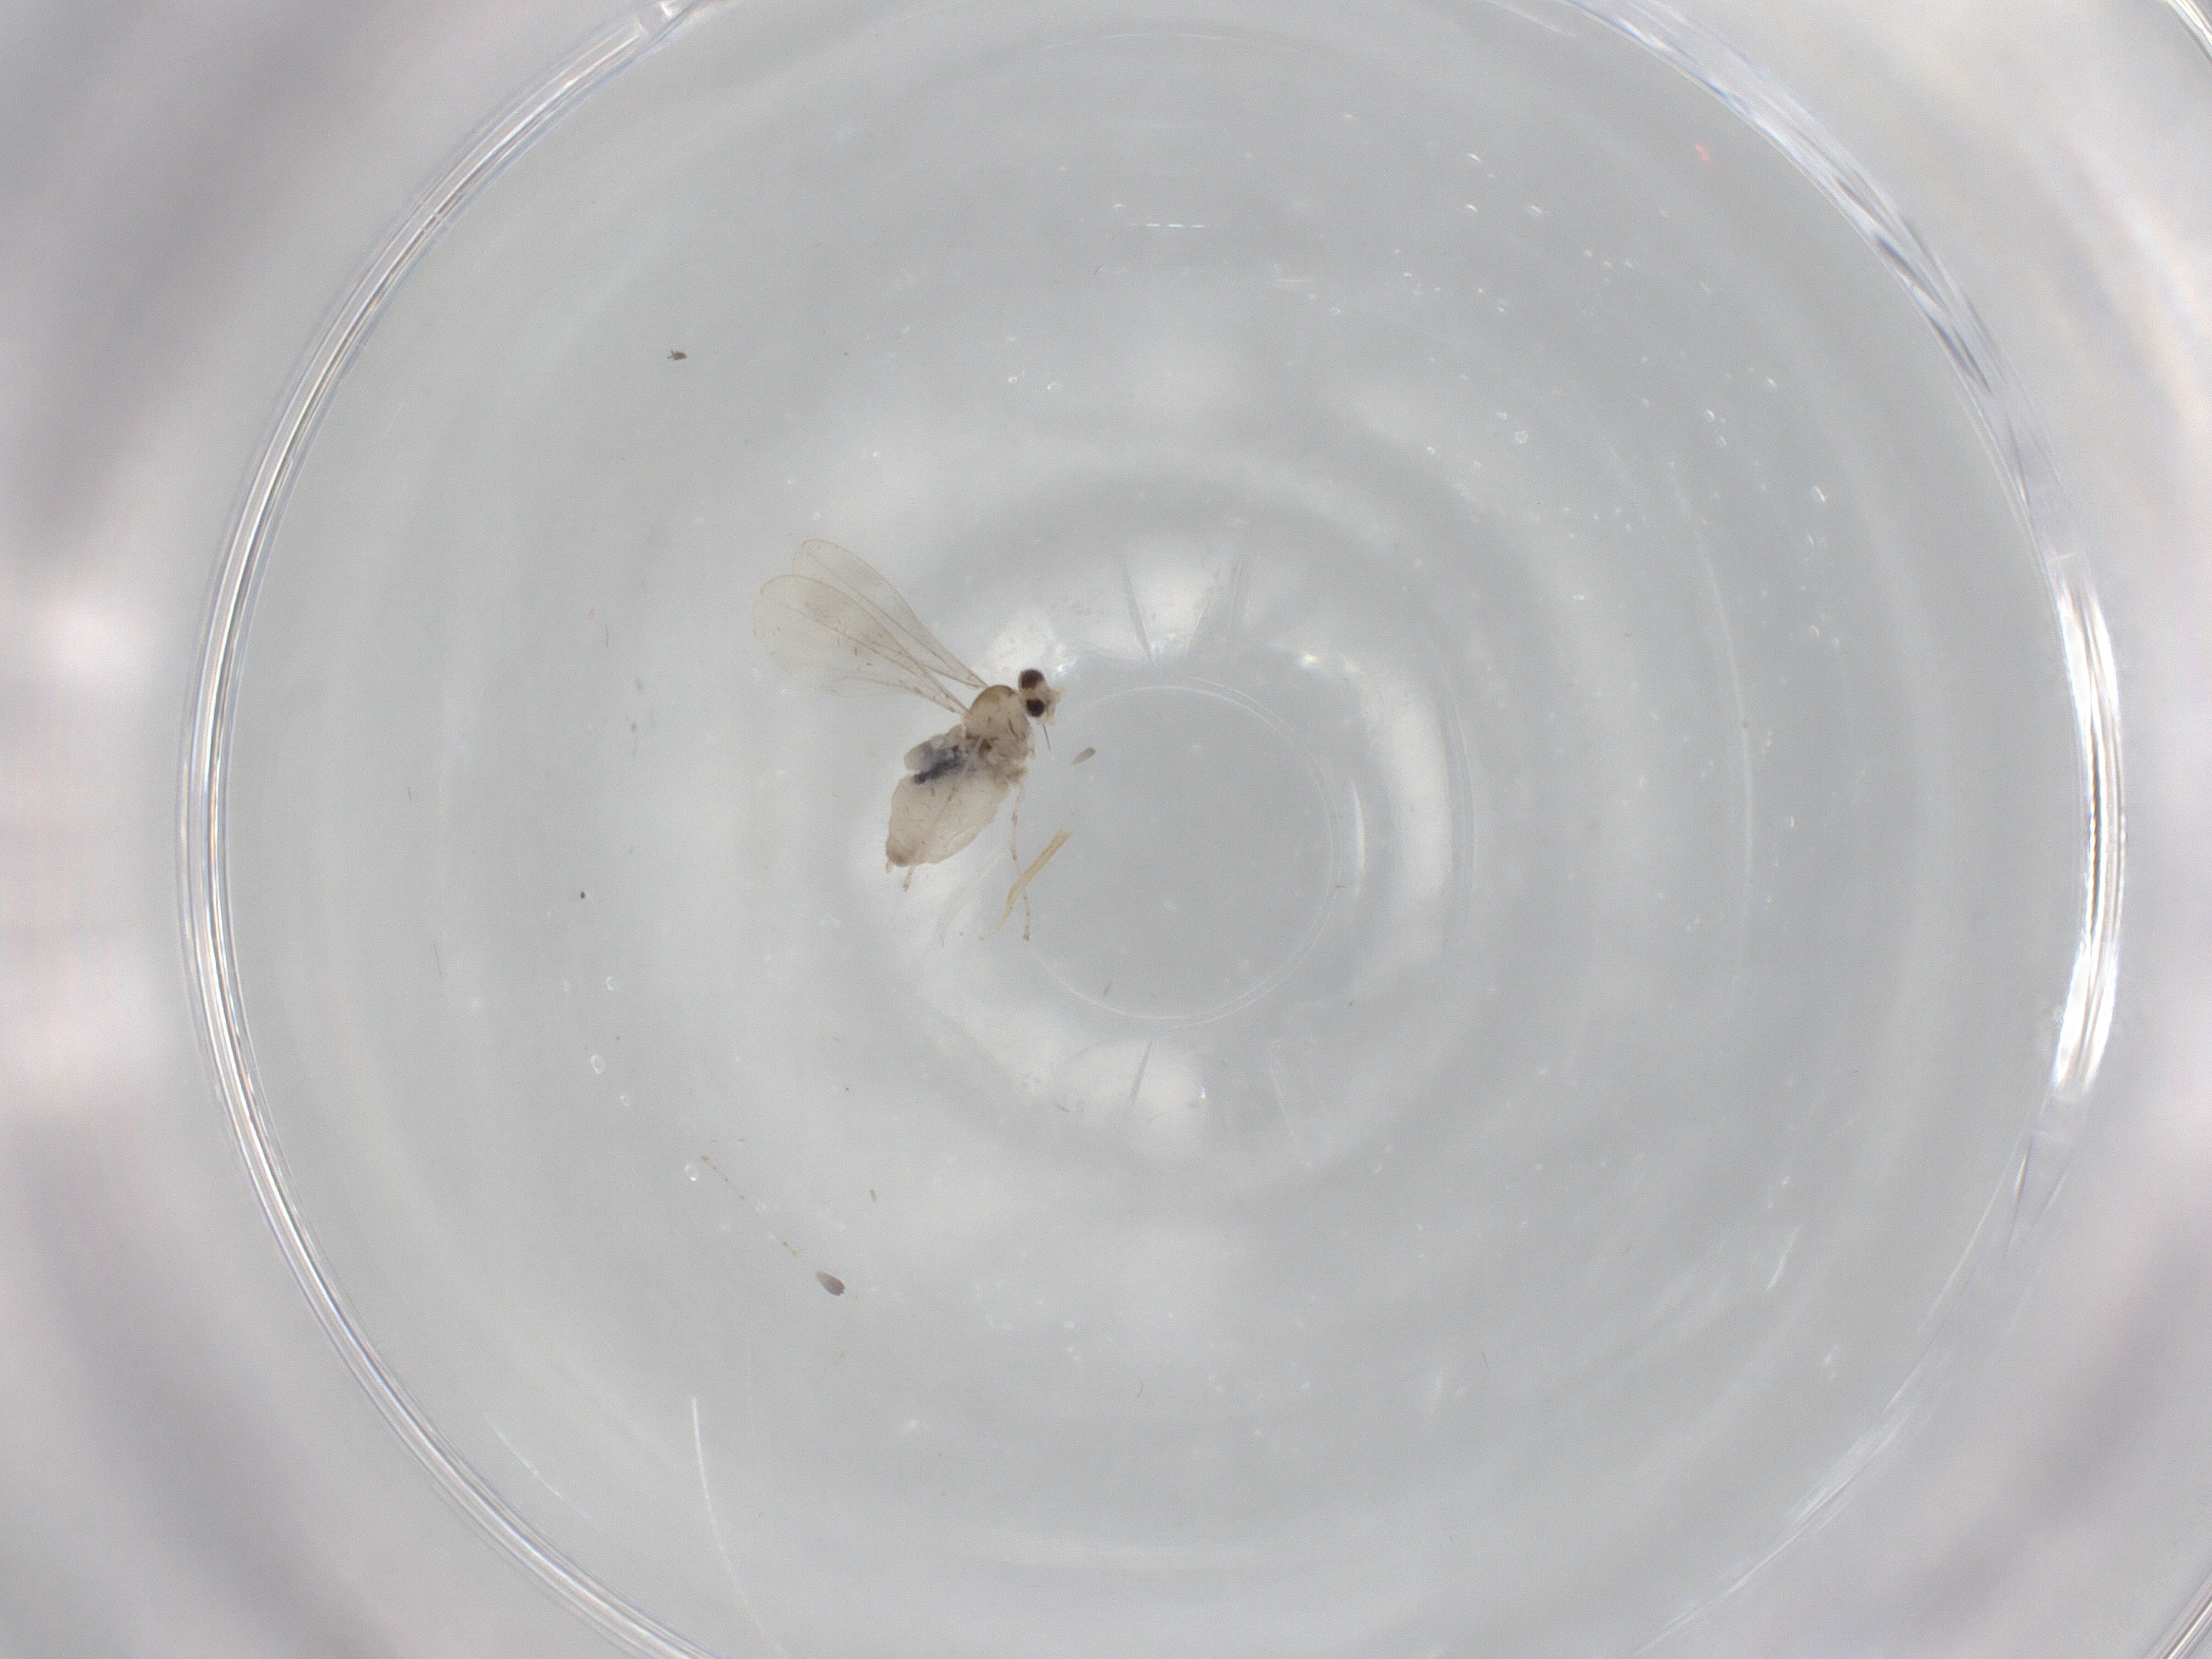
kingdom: Animalia
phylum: Arthropoda
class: Insecta
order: Diptera
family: Phoridae
